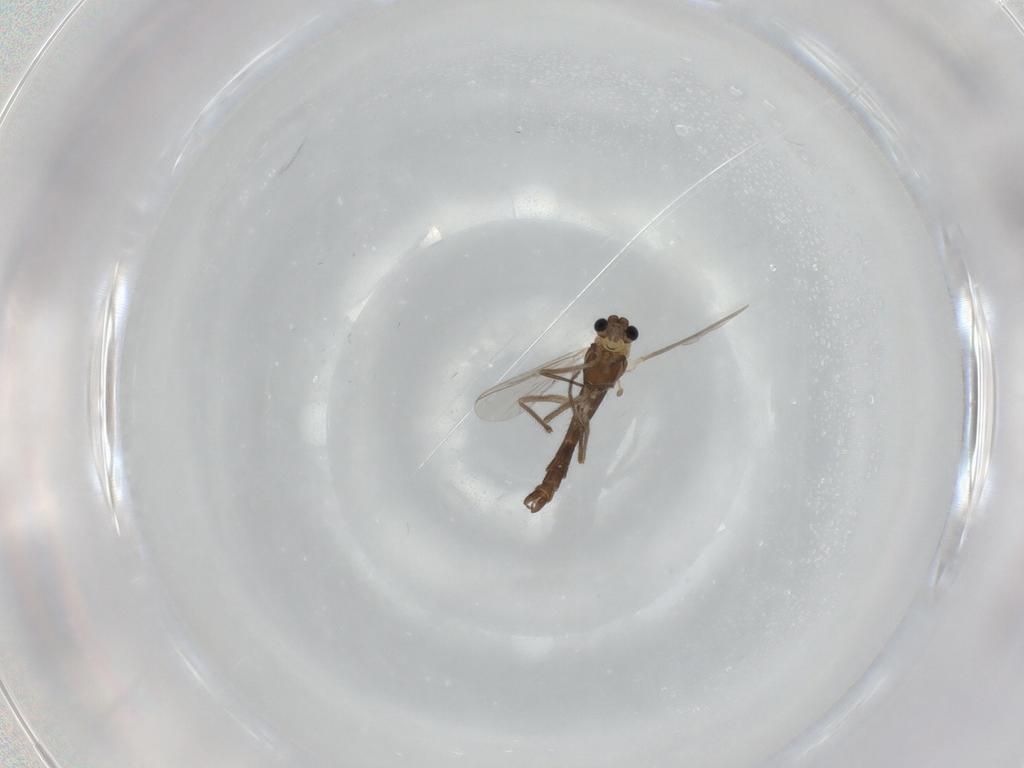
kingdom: Animalia
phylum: Arthropoda
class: Insecta
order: Diptera
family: Chironomidae
